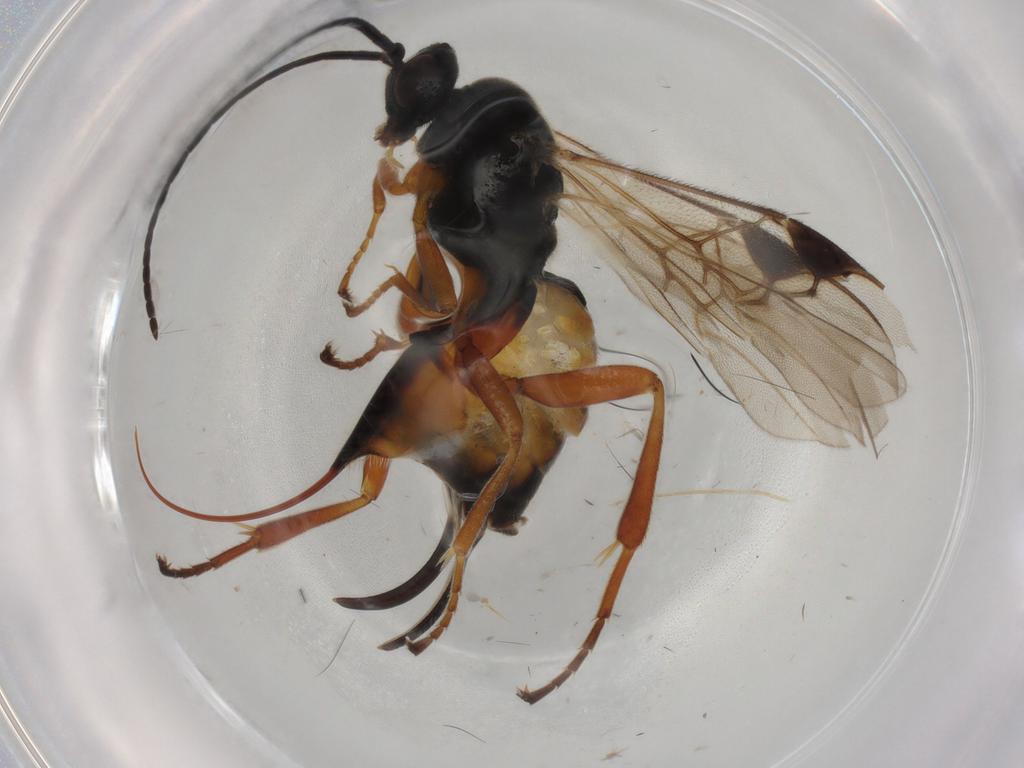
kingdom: Animalia
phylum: Arthropoda
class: Insecta
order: Lepidoptera
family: Tortricidae
